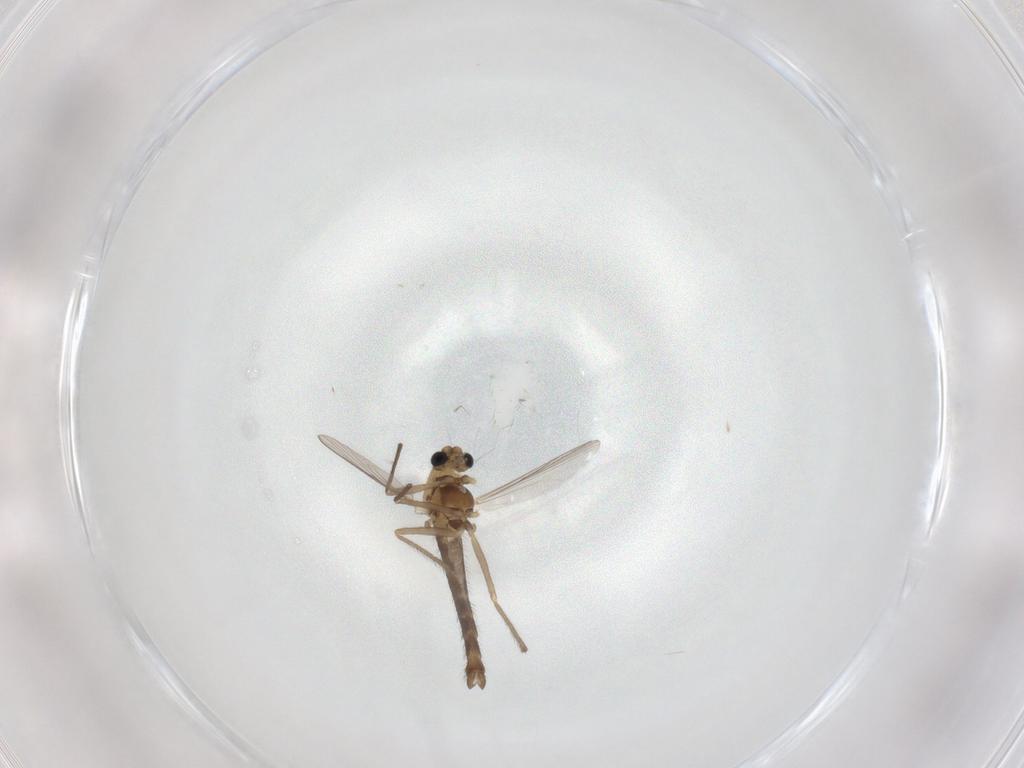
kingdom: Animalia
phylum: Arthropoda
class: Insecta
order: Diptera
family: Chironomidae
